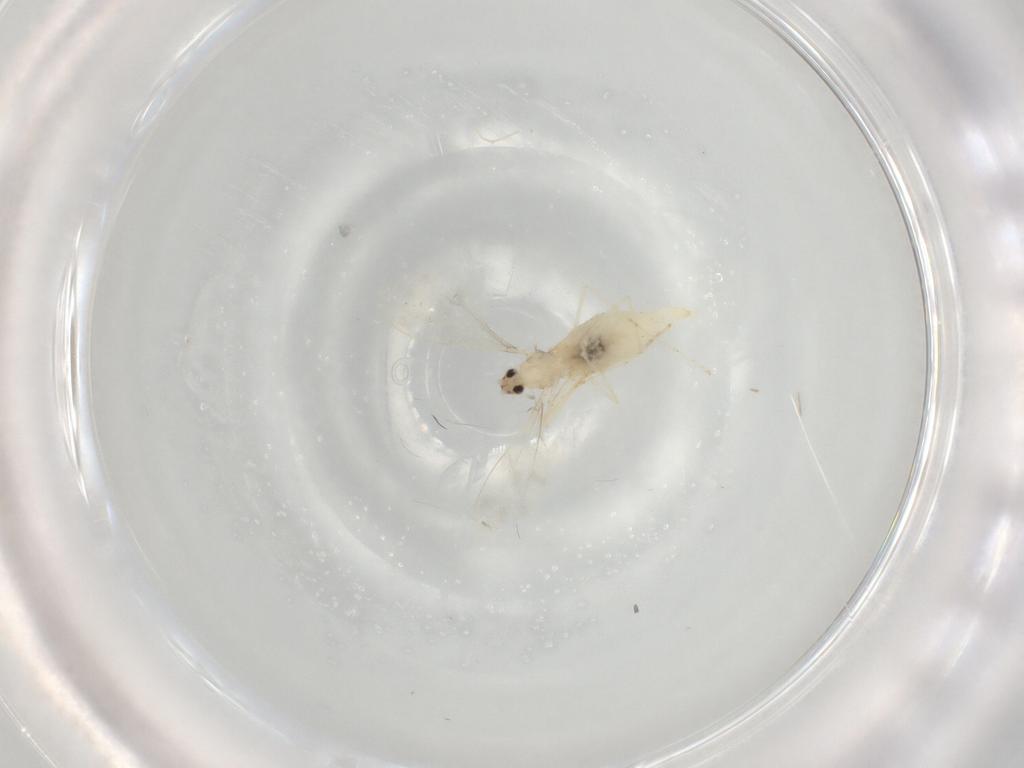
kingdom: Animalia
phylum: Arthropoda
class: Insecta
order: Diptera
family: Cecidomyiidae
